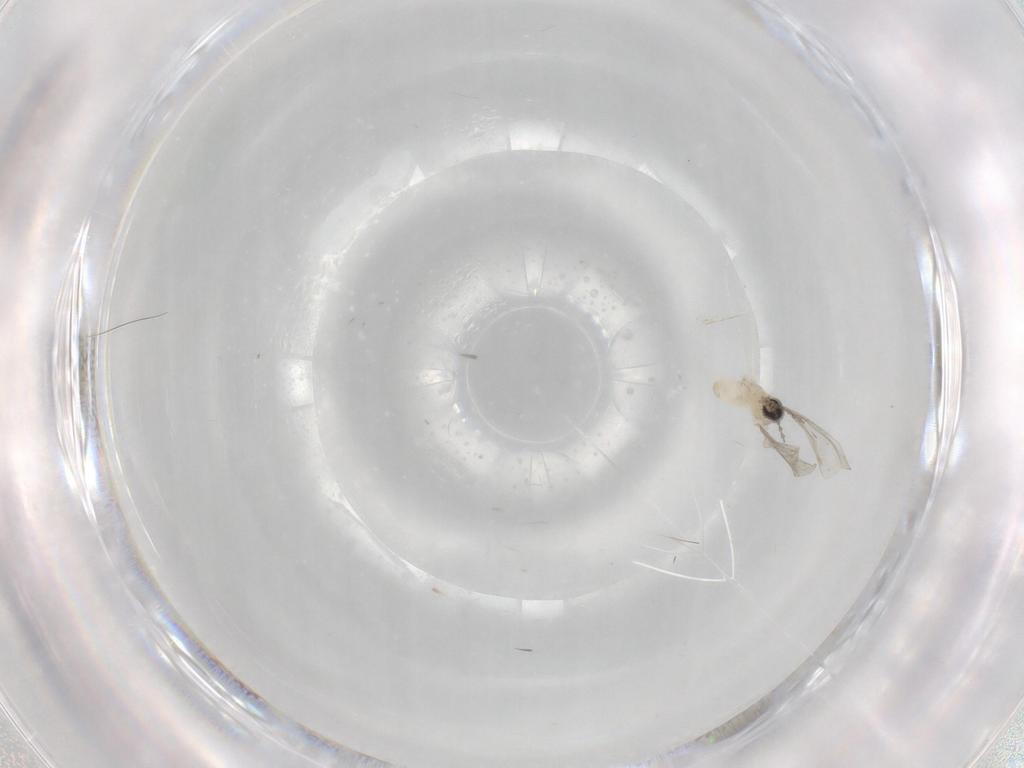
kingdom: Animalia
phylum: Arthropoda
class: Insecta
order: Diptera
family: Cecidomyiidae
